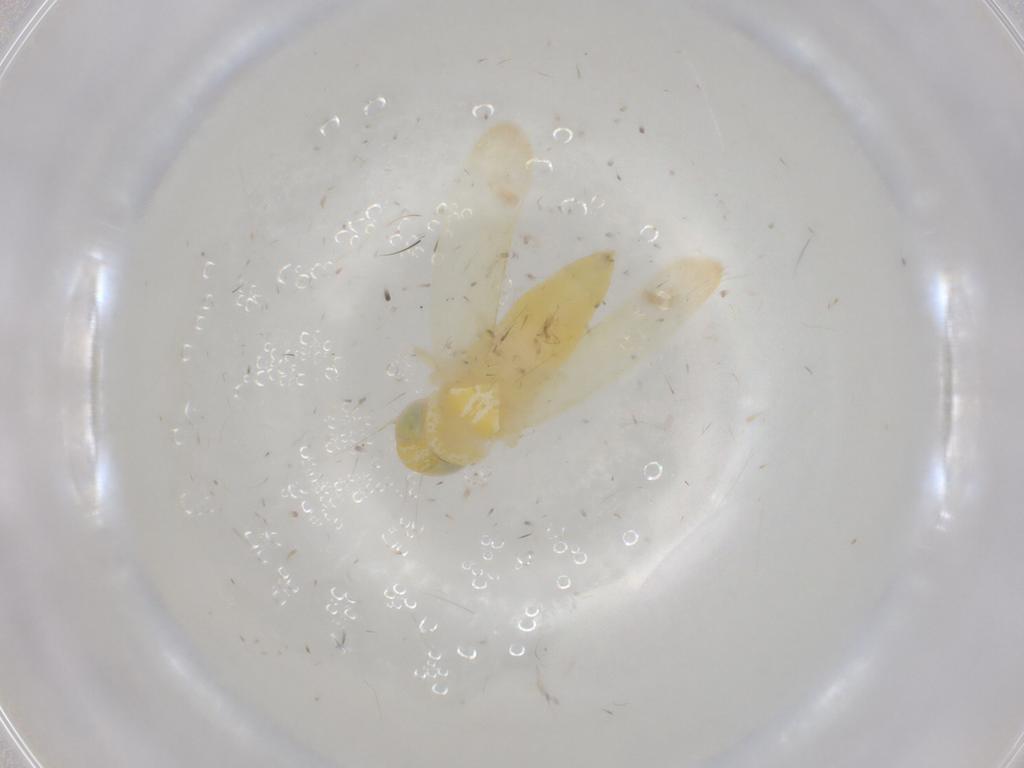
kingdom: Animalia
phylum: Arthropoda
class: Insecta
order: Hemiptera
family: Cicadellidae
